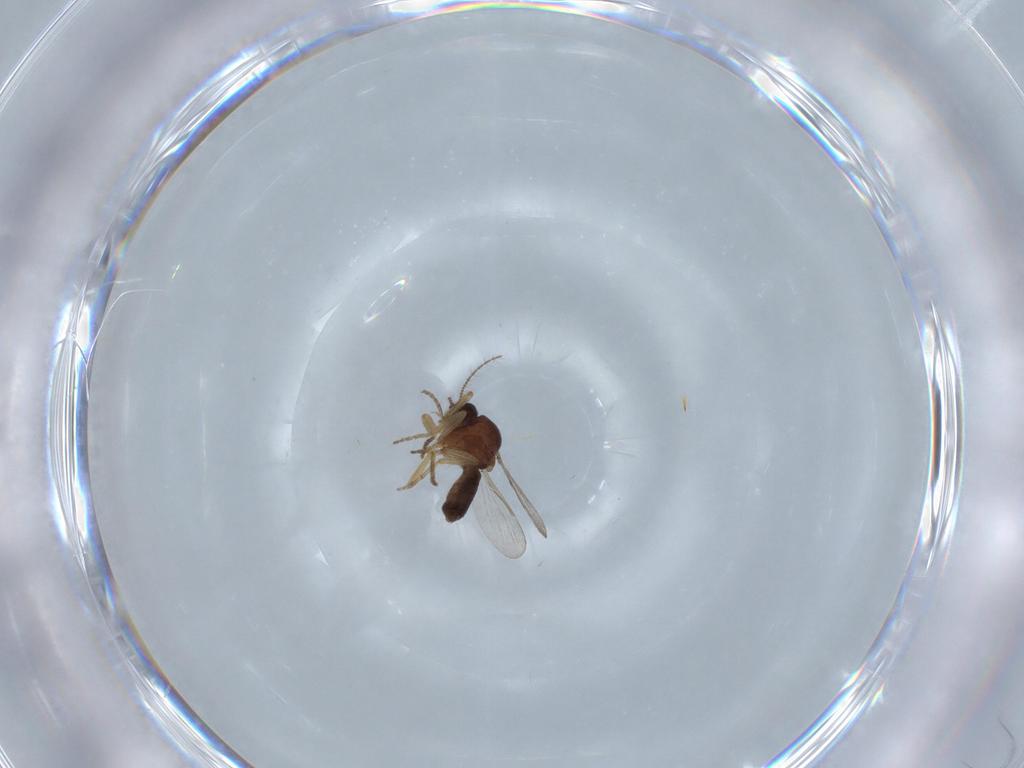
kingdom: Animalia
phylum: Arthropoda
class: Insecta
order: Diptera
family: Ceratopogonidae
